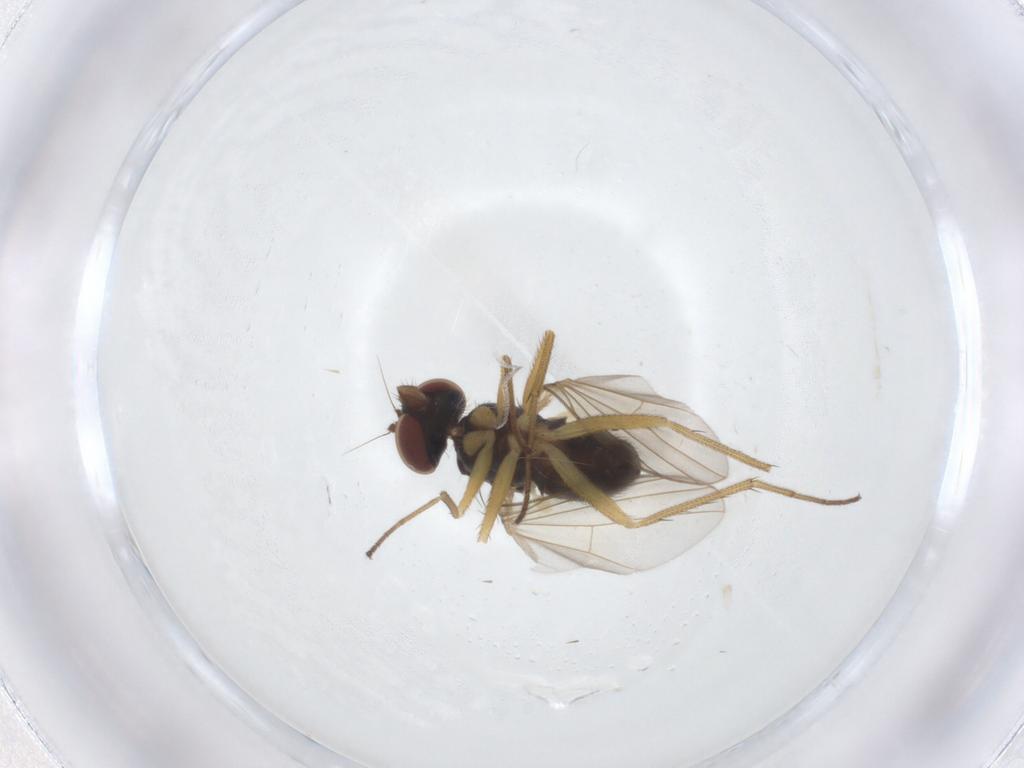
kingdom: Animalia
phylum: Arthropoda
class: Insecta
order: Diptera
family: Dolichopodidae
